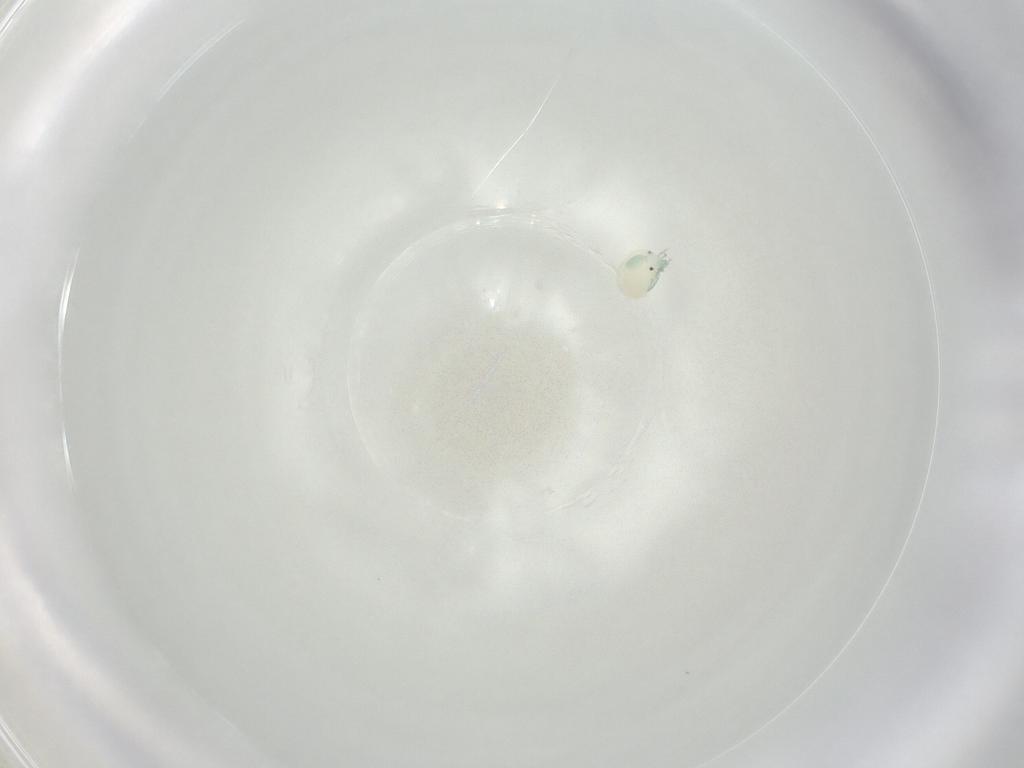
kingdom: Animalia
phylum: Arthropoda
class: Arachnida
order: Trombidiformes
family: Arrenuridae
